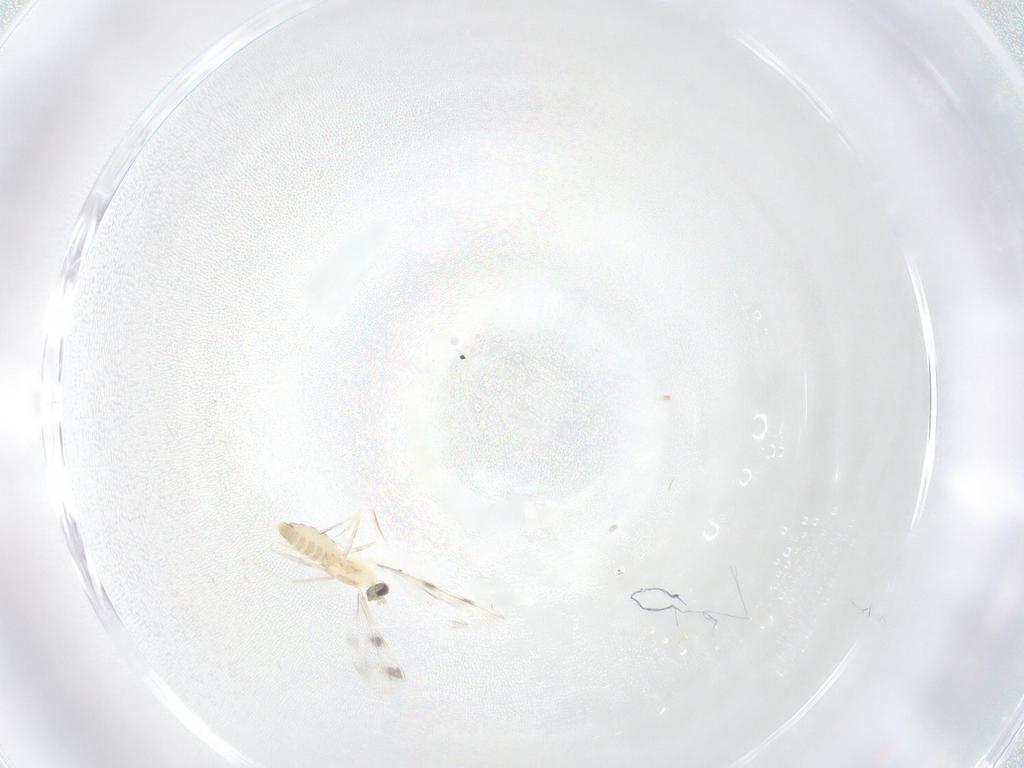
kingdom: Animalia
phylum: Arthropoda
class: Insecta
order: Diptera
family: Cecidomyiidae
